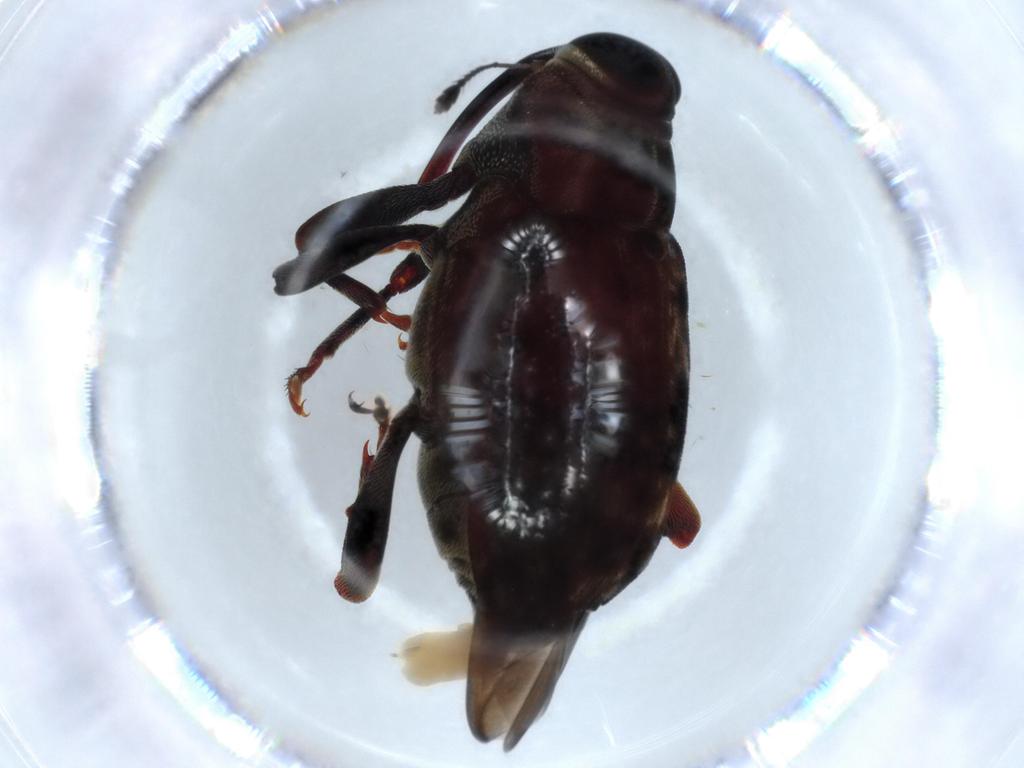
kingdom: Animalia
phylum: Arthropoda
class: Insecta
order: Coleoptera
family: Curculionidae
